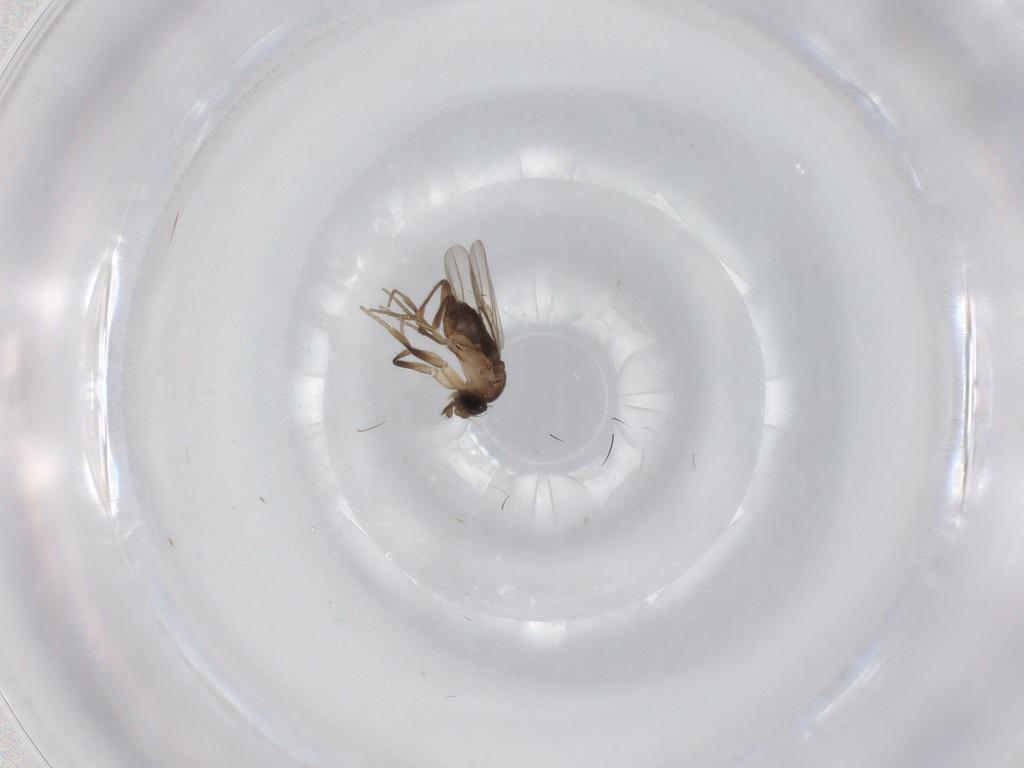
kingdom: Animalia
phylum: Arthropoda
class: Insecta
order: Diptera
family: Phoridae
